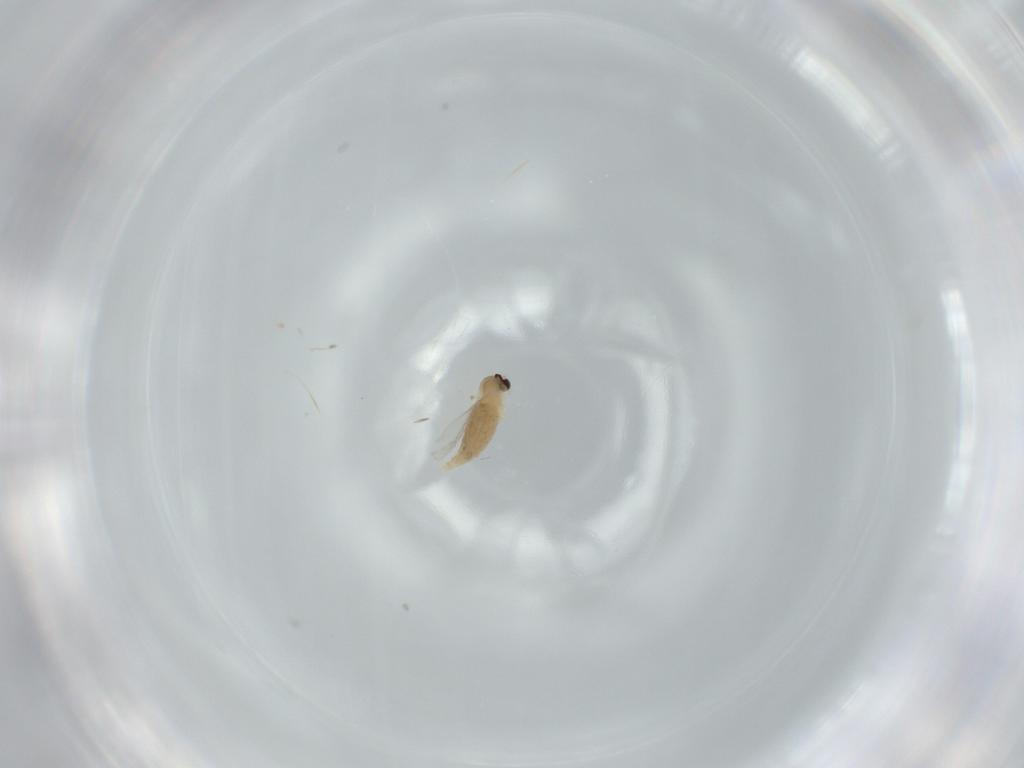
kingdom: Animalia
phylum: Arthropoda
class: Insecta
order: Diptera
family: Cecidomyiidae
